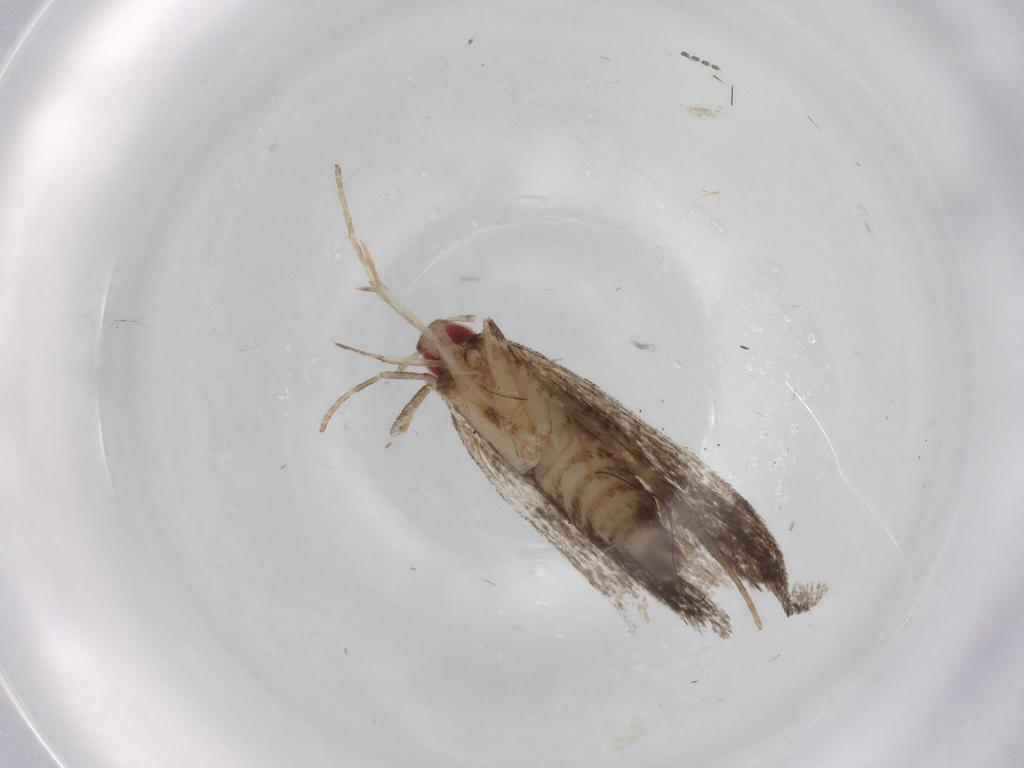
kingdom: Animalia
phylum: Arthropoda
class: Insecta
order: Lepidoptera
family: Gelechiidae
